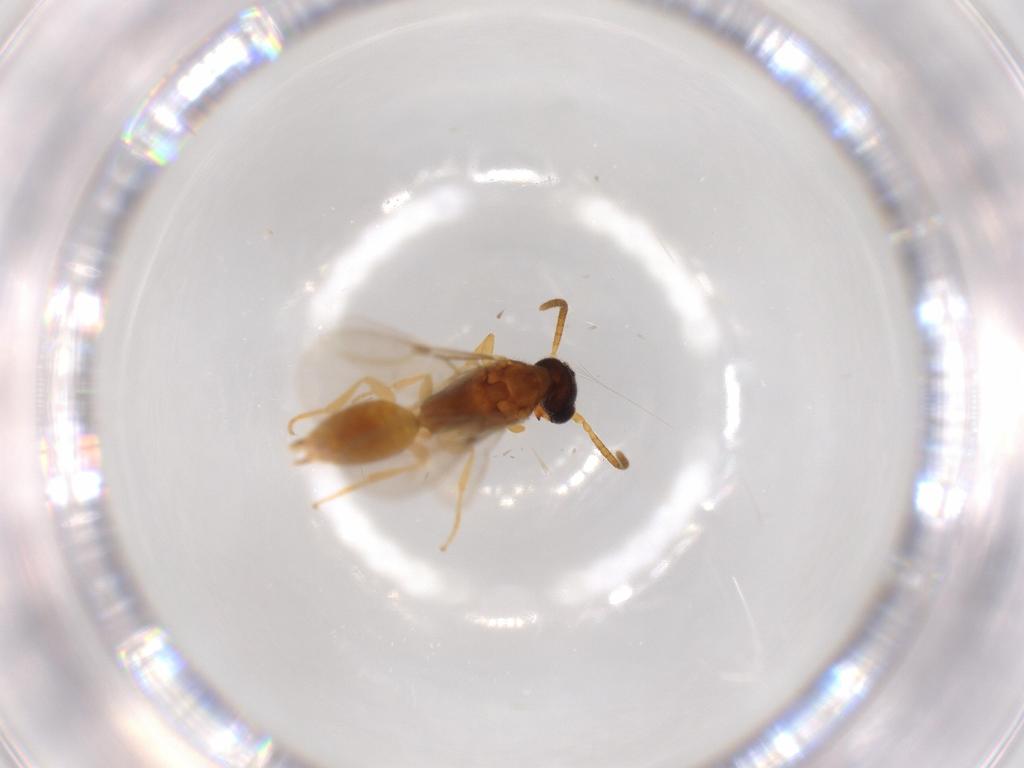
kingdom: Animalia
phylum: Arthropoda
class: Insecta
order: Hymenoptera
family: Bethylidae
